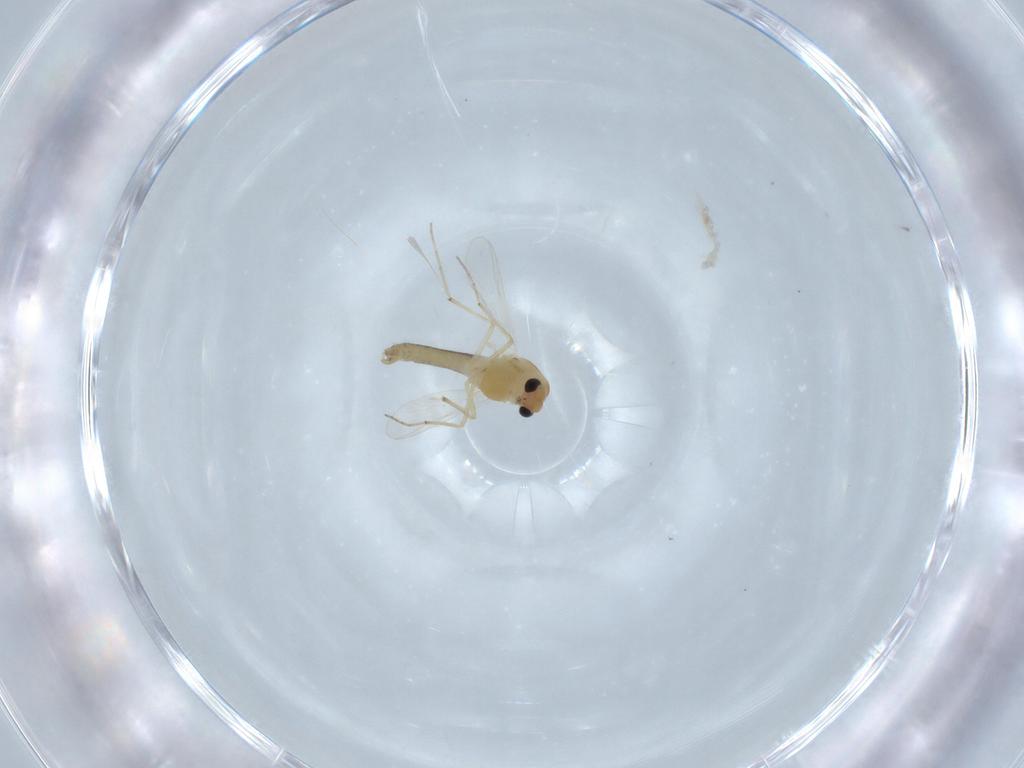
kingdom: Animalia
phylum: Arthropoda
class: Insecta
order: Diptera
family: Chironomidae
